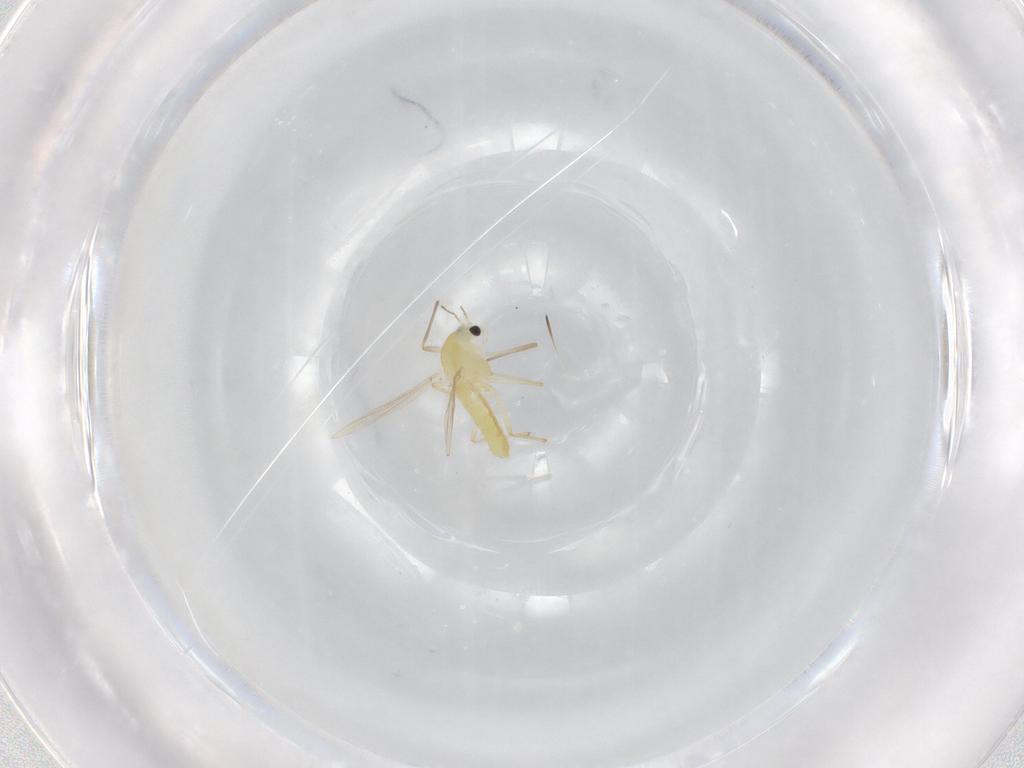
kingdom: Animalia
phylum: Arthropoda
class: Insecta
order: Diptera
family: Chironomidae
